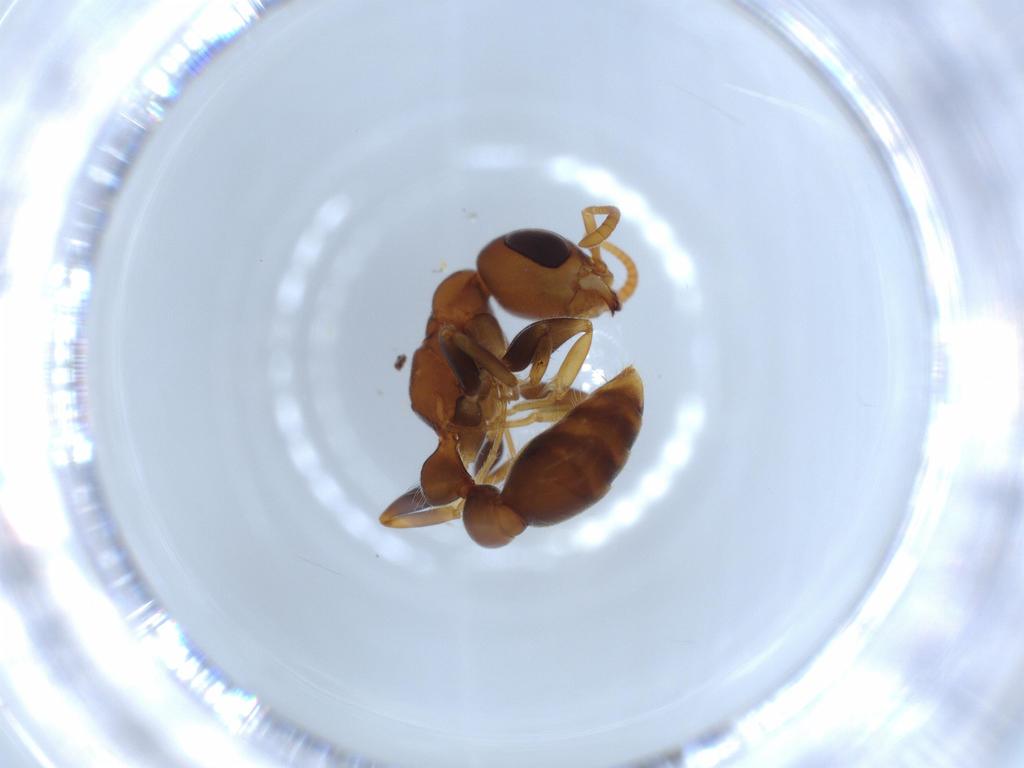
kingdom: Animalia
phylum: Arthropoda
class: Insecta
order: Hymenoptera
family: Formicidae
